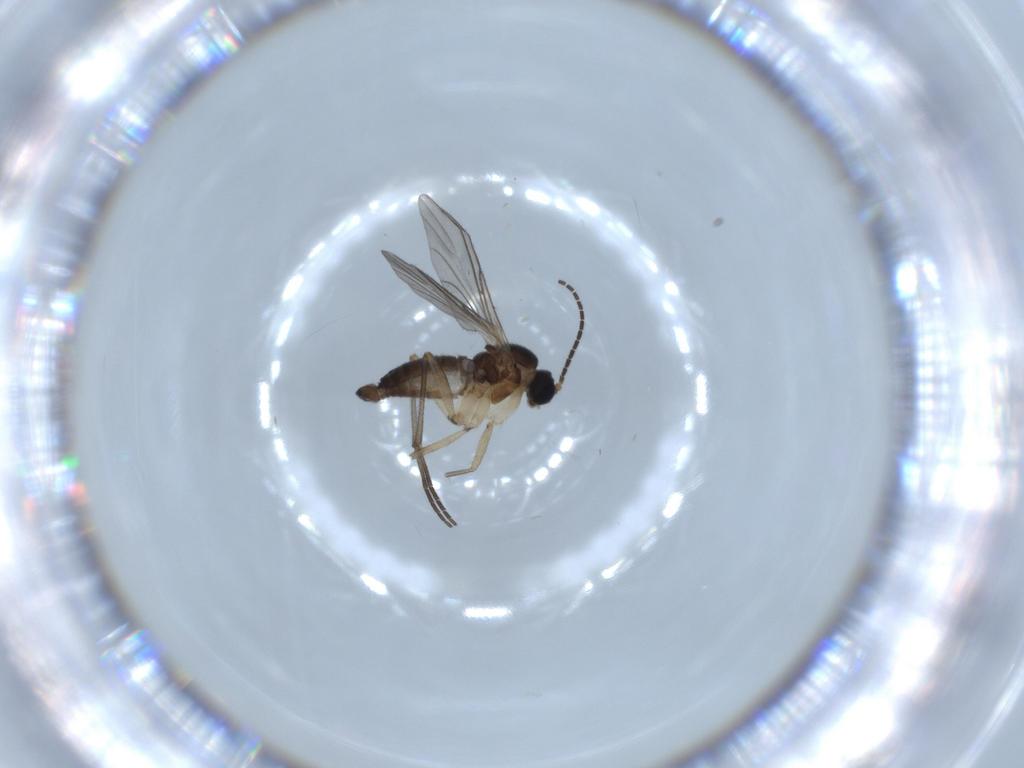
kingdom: Animalia
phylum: Arthropoda
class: Insecta
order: Diptera
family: Sciaridae
